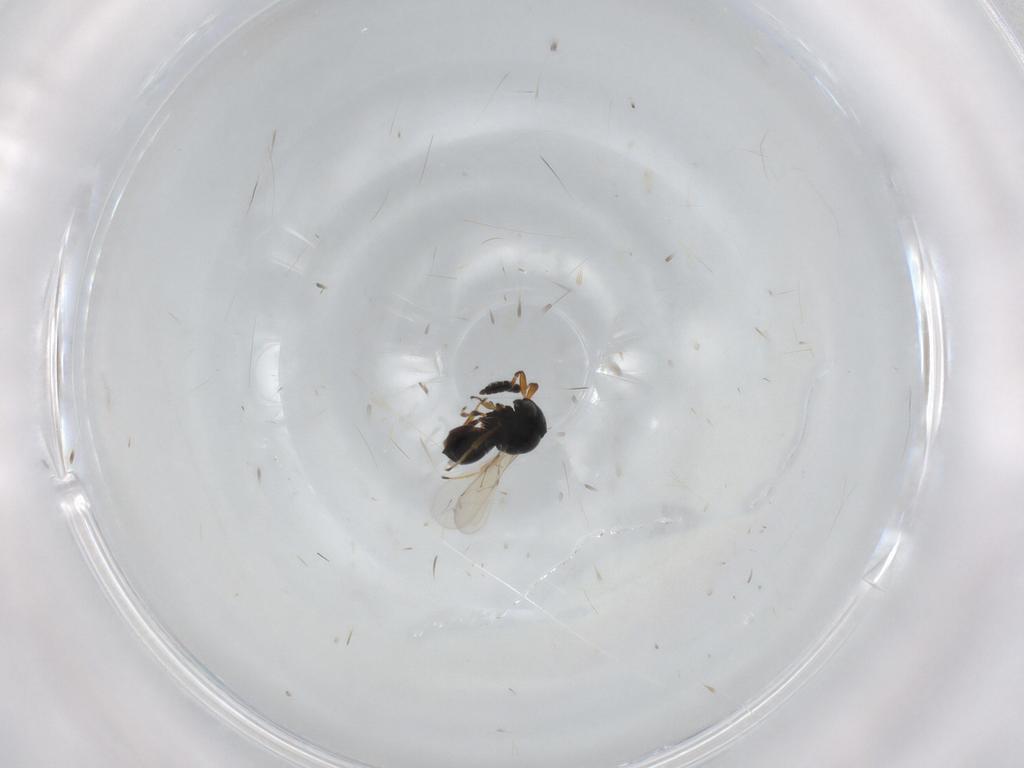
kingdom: Animalia
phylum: Arthropoda
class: Insecta
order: Hymenoptera
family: Scelionidae
